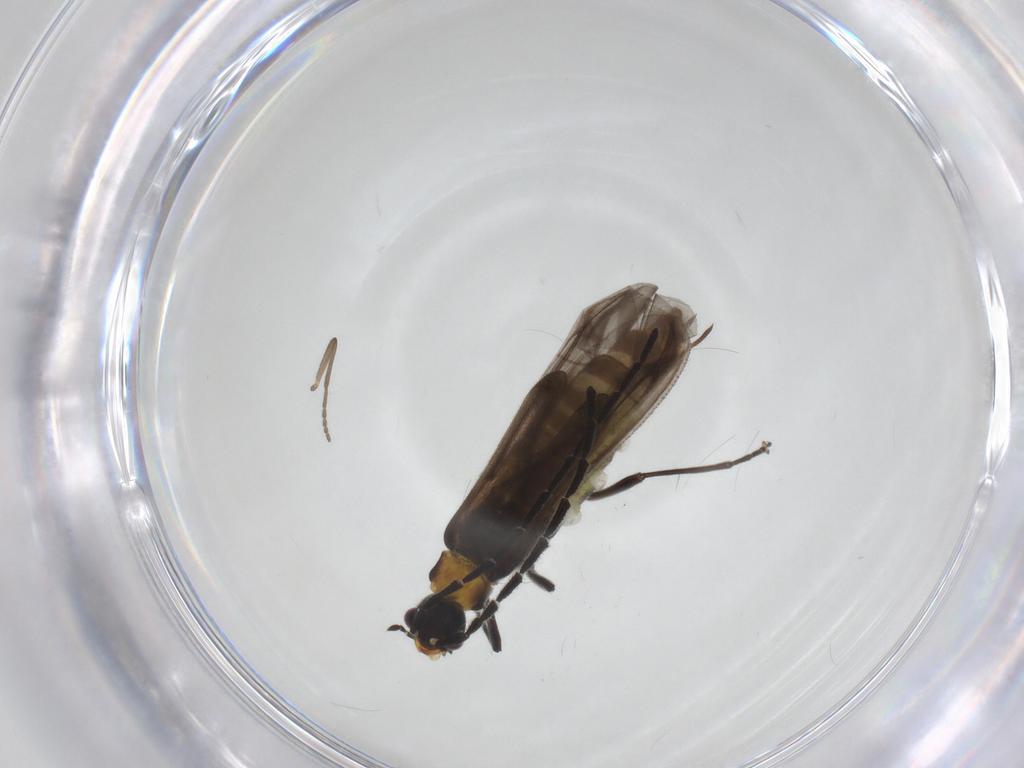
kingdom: Animalia
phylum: Arthropoda
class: Insecta
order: Coleoptera
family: Cantharidae
